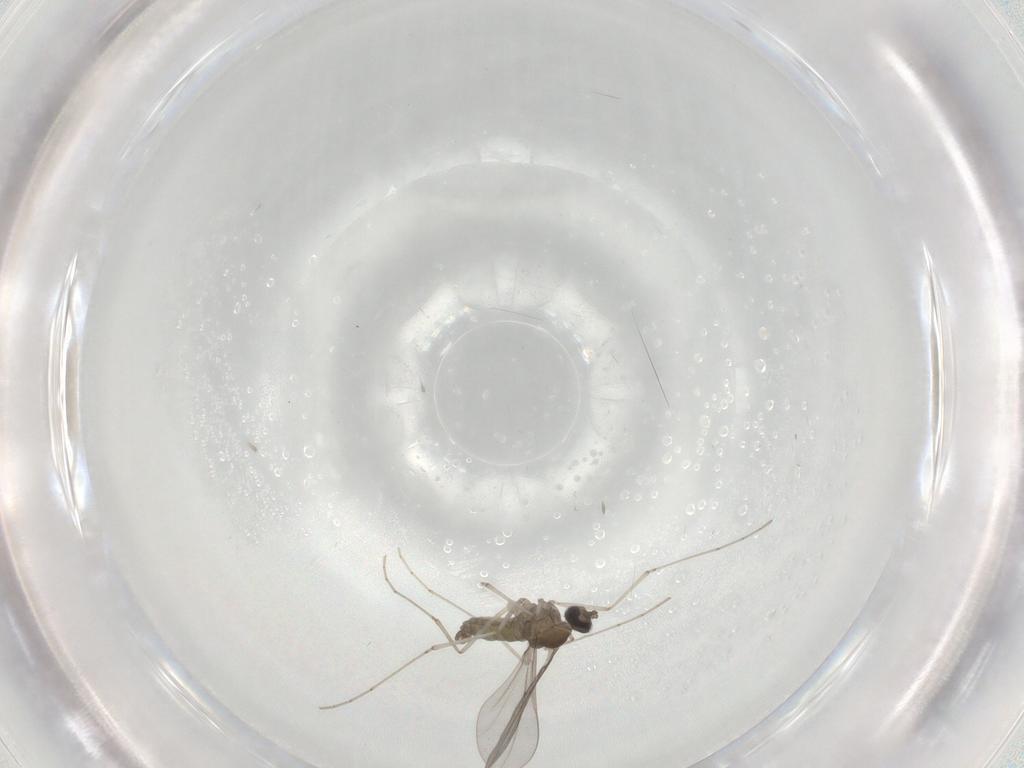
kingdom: Animalia
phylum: Arthropoda
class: Insecta
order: Diptera
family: Cecidomyiidae
